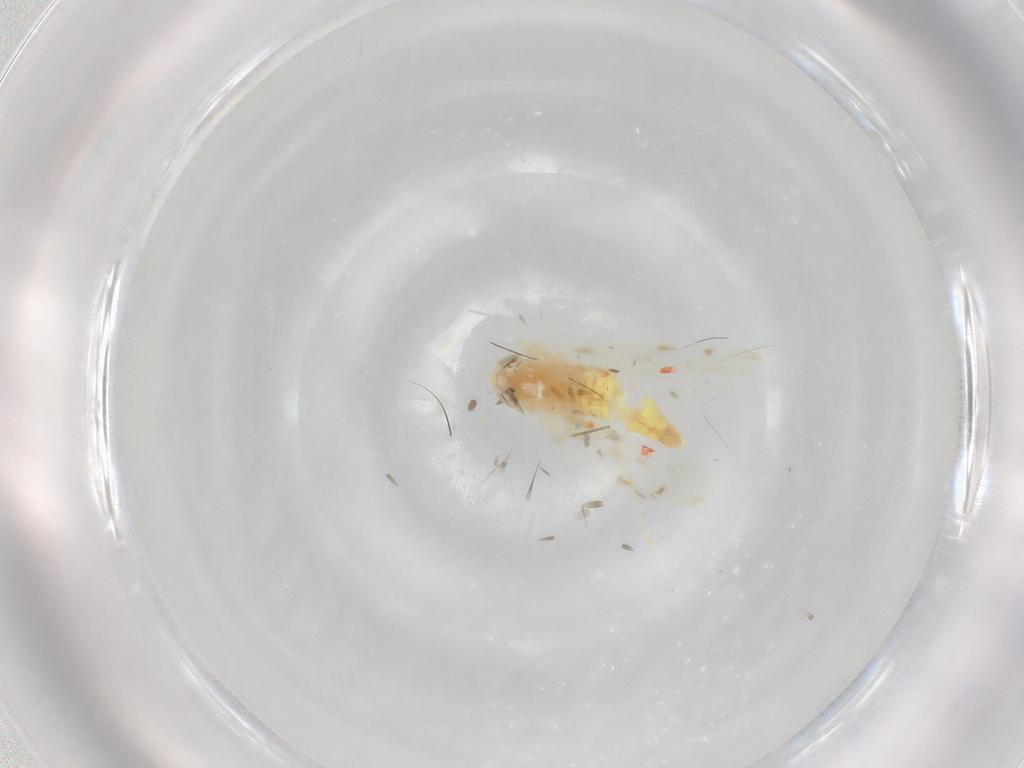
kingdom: Animalia
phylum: Arthropoda
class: Insecta
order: Hemiptera
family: Cicadellidae
